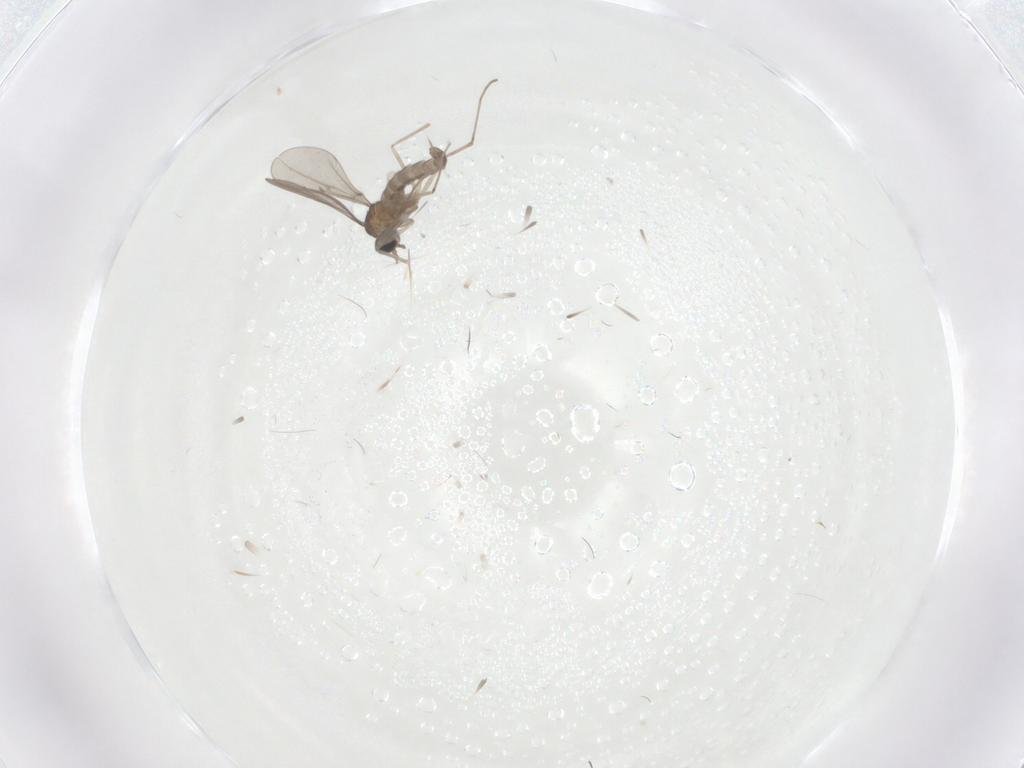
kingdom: Animalia
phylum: Arthropoda
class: Insecta
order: Diptera
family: Cecidomyiidae
